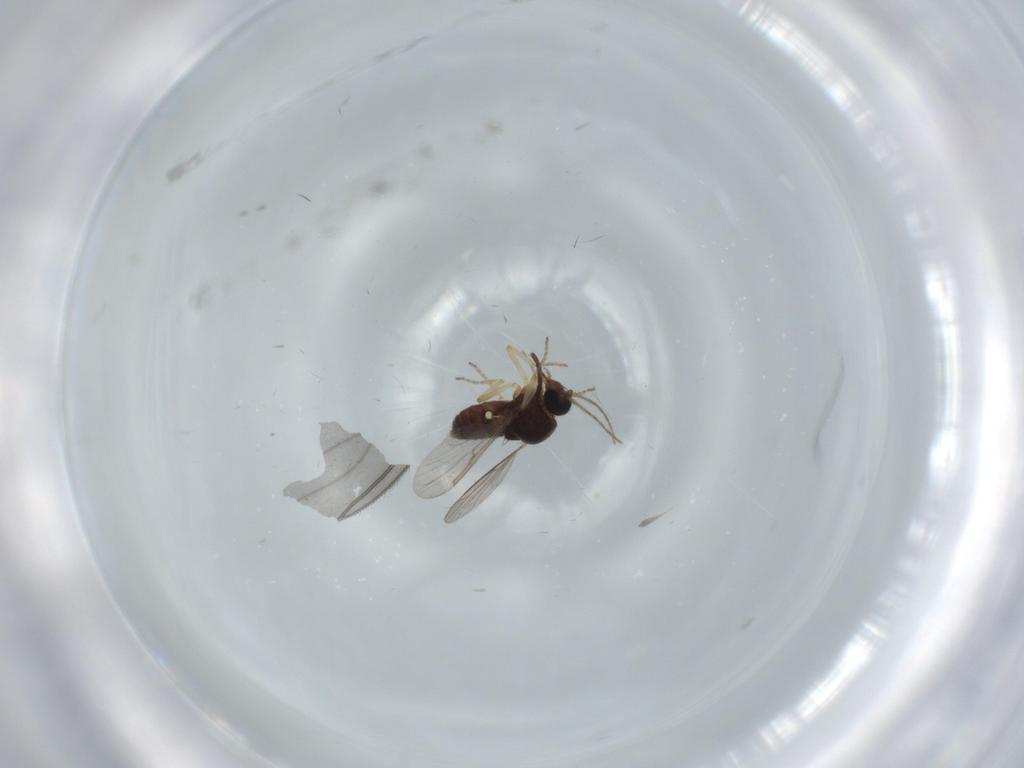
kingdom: Animalia
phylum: Arthropoda
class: Insecta
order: Diptera
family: Ceratopogonidae
